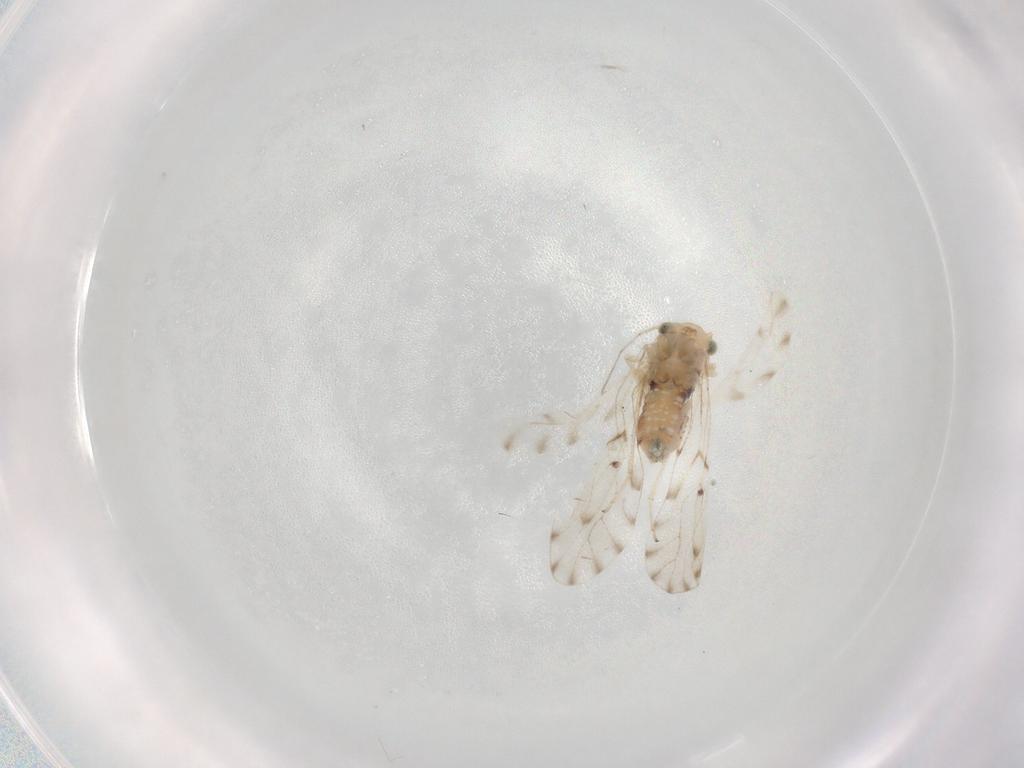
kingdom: Animalia
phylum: Arthropoda
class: Insecta
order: Psocodea
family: Ectopsocidae
